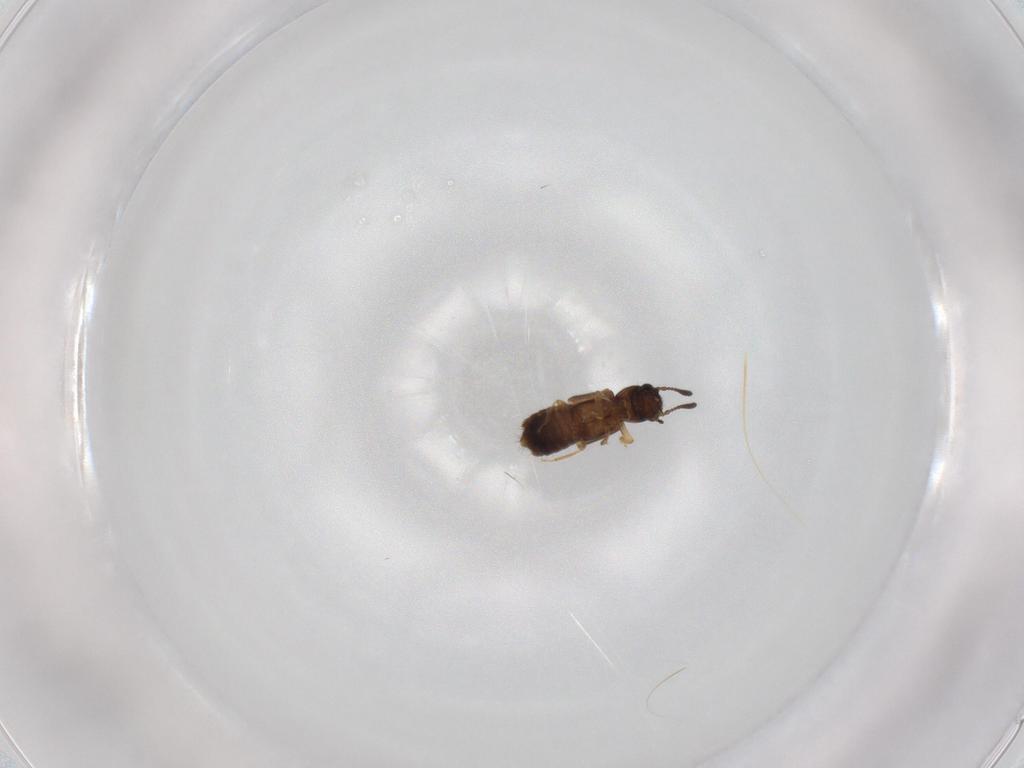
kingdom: Animalia
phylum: Arthropoda
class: Insecta
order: Coleoptera
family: Staphylinidae
